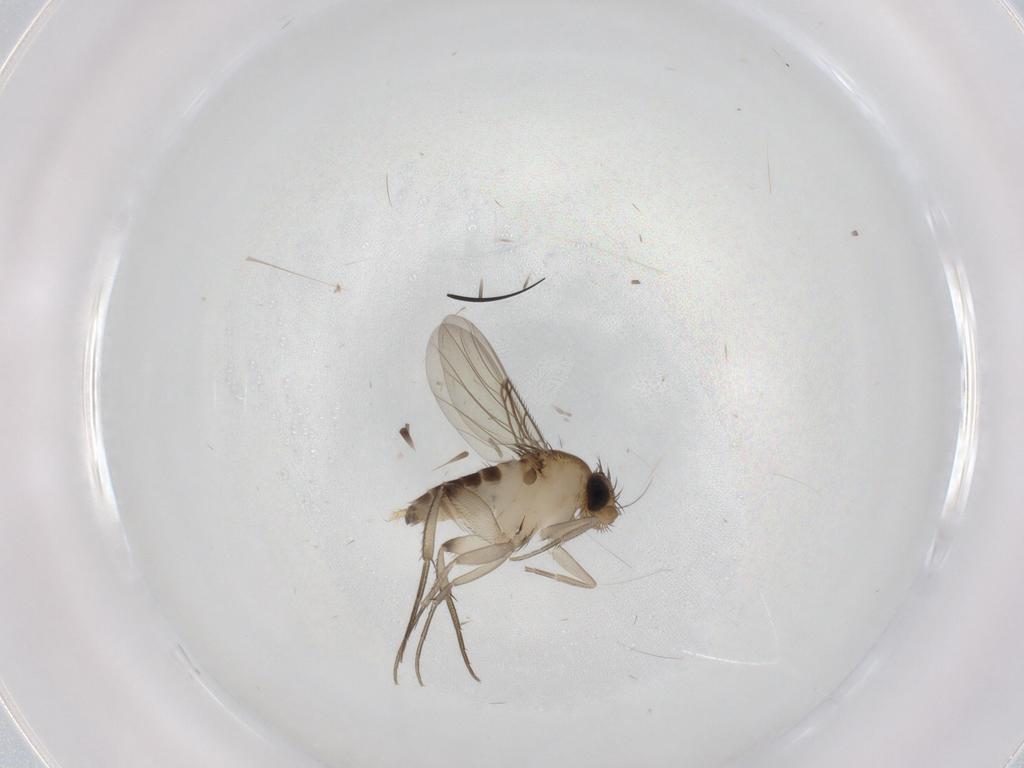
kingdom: Animalia
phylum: Arthropoda
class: Insecta
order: Diptera
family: Phoridae
